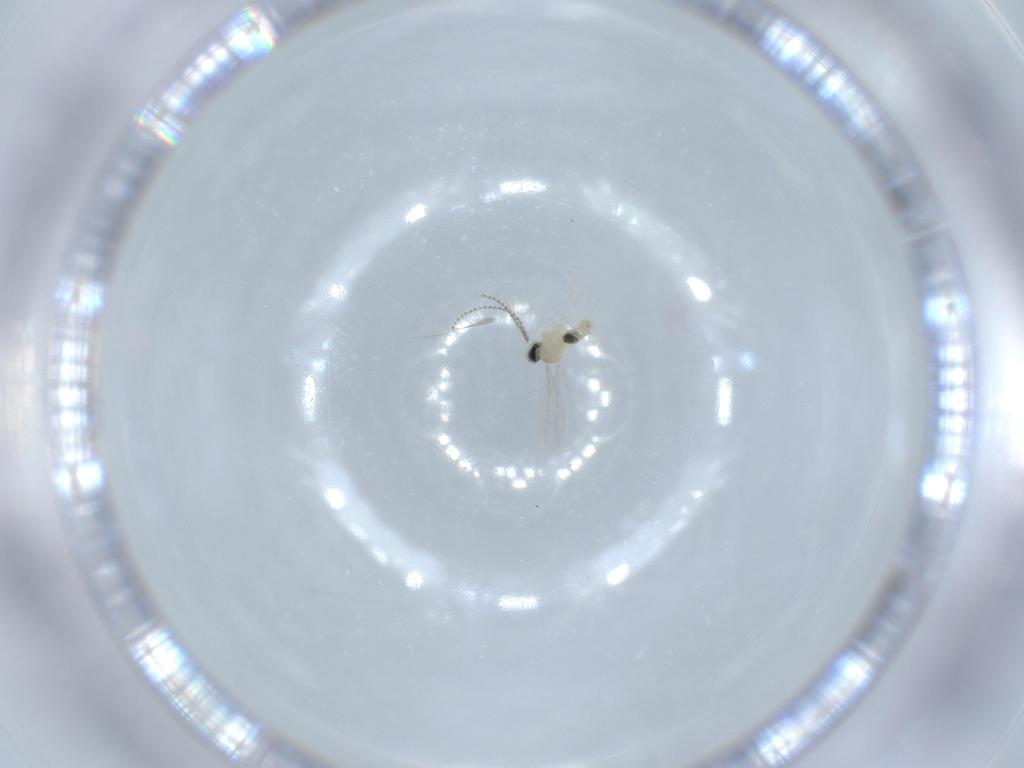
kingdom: Animalia
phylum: Arthropoda
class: Insecta
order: Diptera
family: Cecidomyiidae
